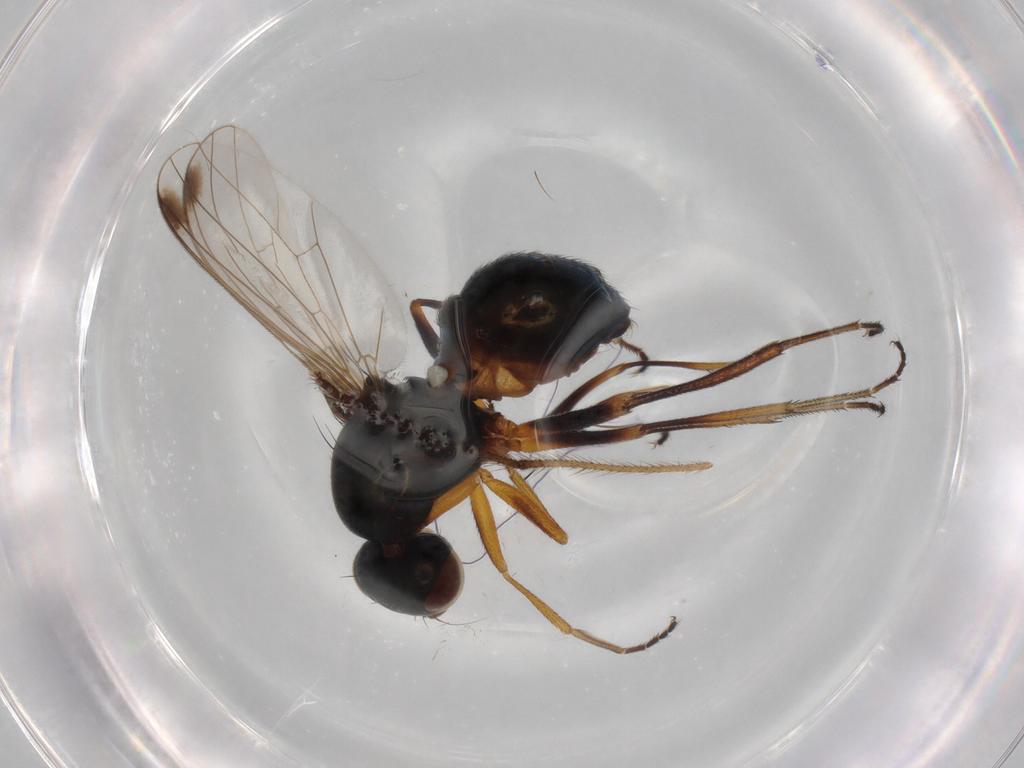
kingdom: Animalia
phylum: Arthropoda
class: Insecta
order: Diptera
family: Limoniidae
